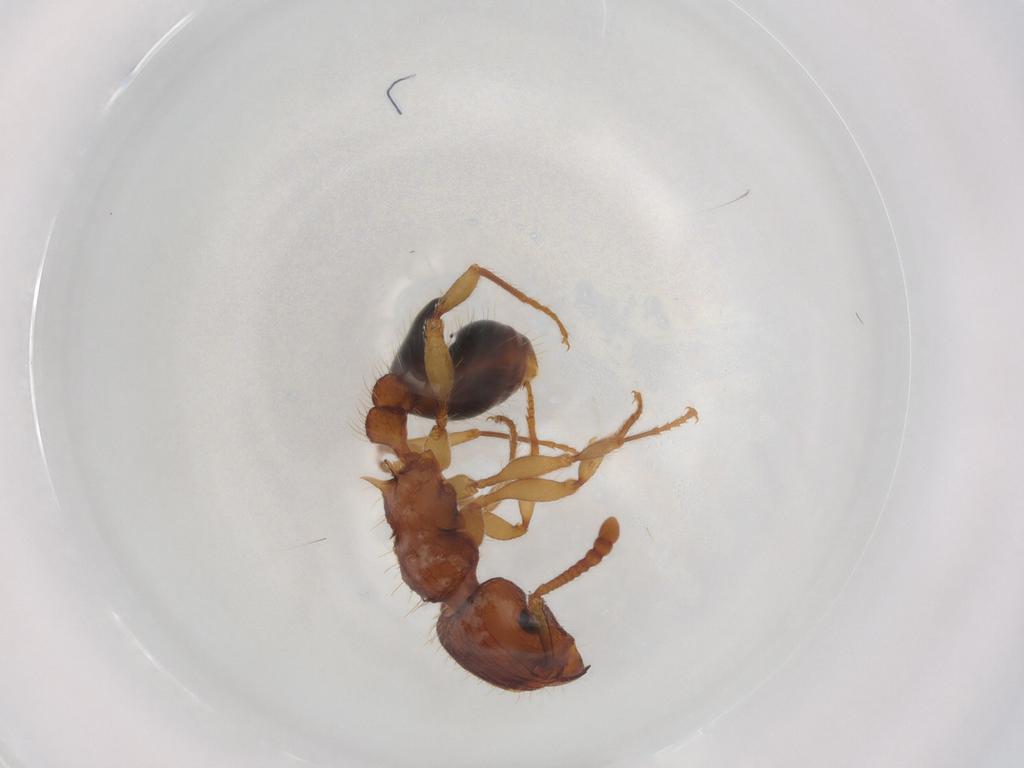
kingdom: Animalia
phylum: Arthropoda
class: Insecta
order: Hymenoptera
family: Formicidae
